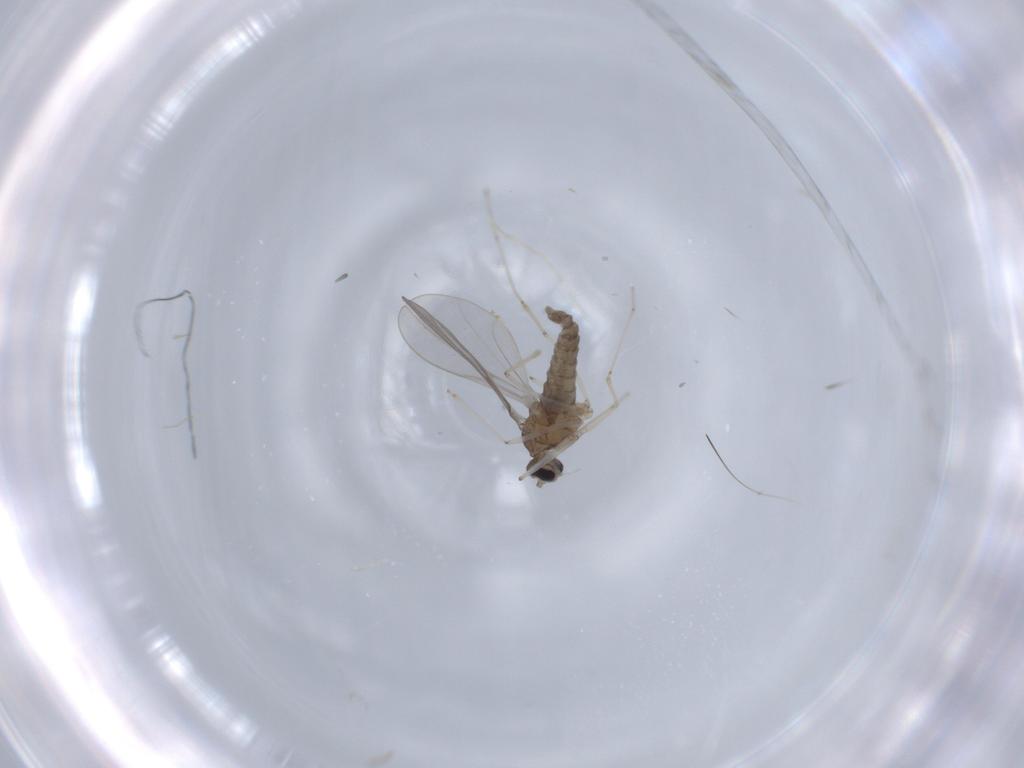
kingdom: Animalia
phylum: Arthropoda
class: Insecta
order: Diptera
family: Cecidomyiidae
